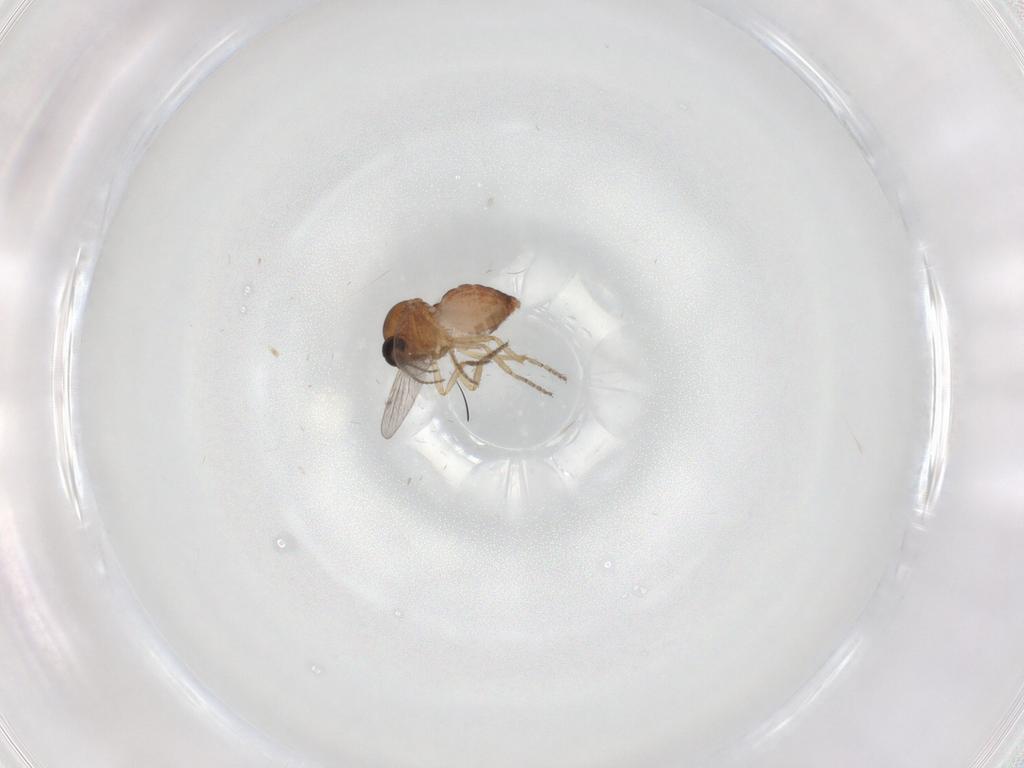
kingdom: Animalia
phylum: Arthropoda
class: Insecta
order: Diptera
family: Ceratopogonidae
